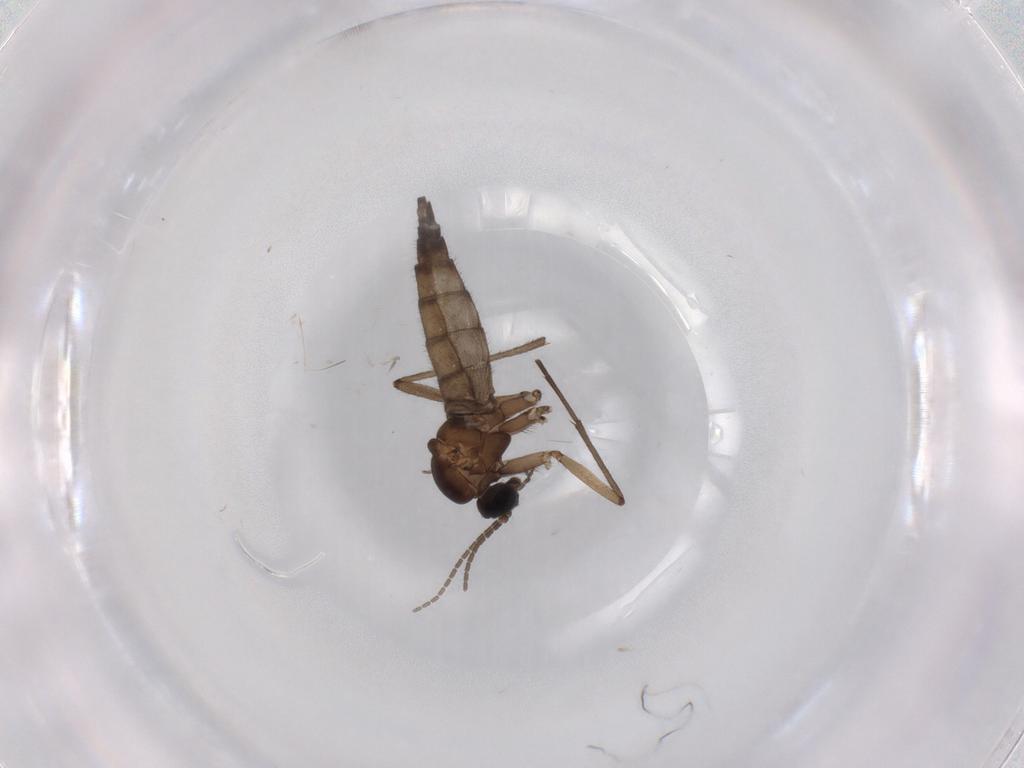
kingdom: Animalia
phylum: Arthropoda
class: Insecta
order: Diptera
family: Sciaridae
